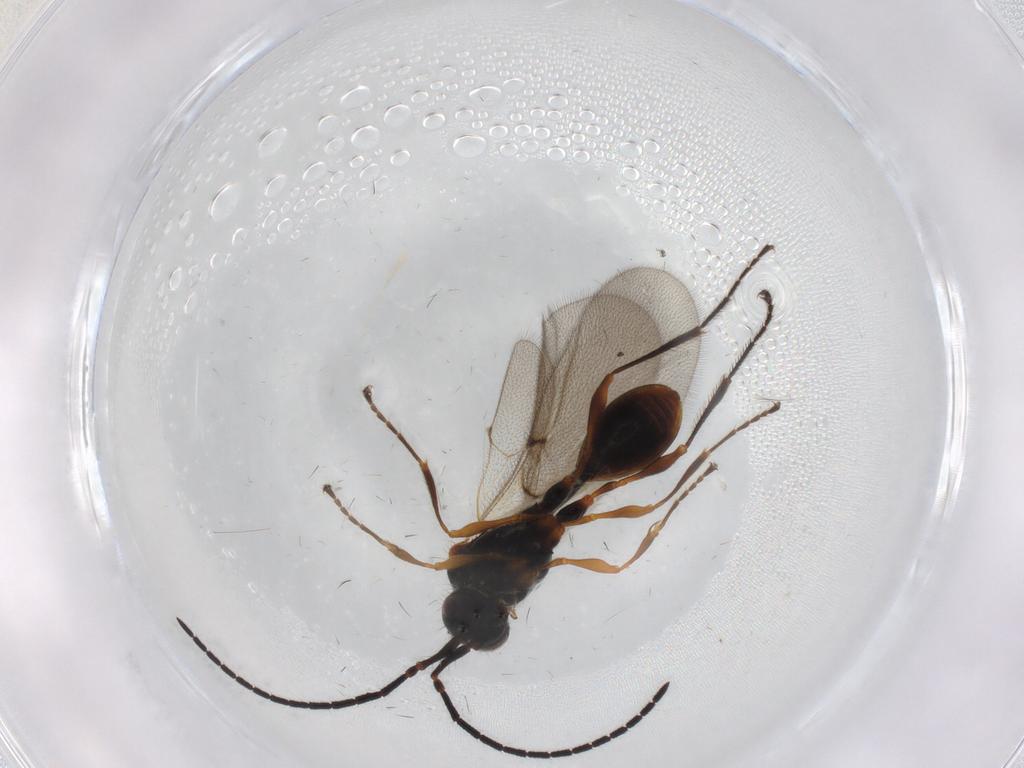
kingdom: Animalia
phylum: Arthropoda
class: Insecta
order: Hymenoptera
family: Diapriidae
